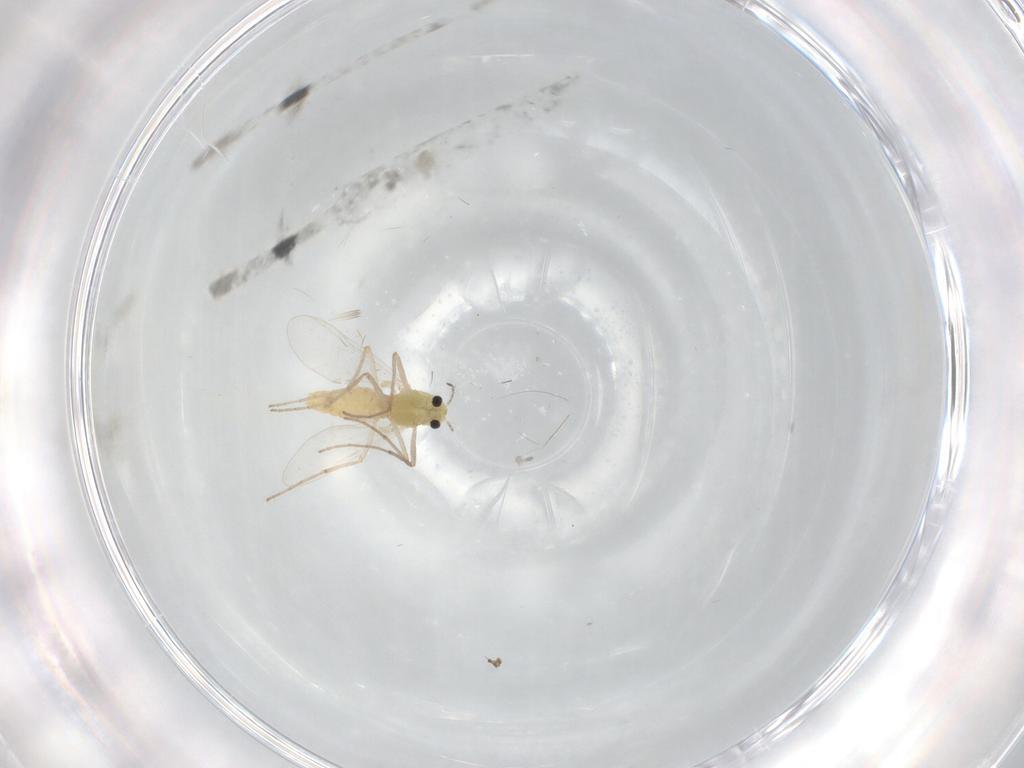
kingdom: Animalia
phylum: Arthropoda
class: Insecta
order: Diptera
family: Chironomidae
